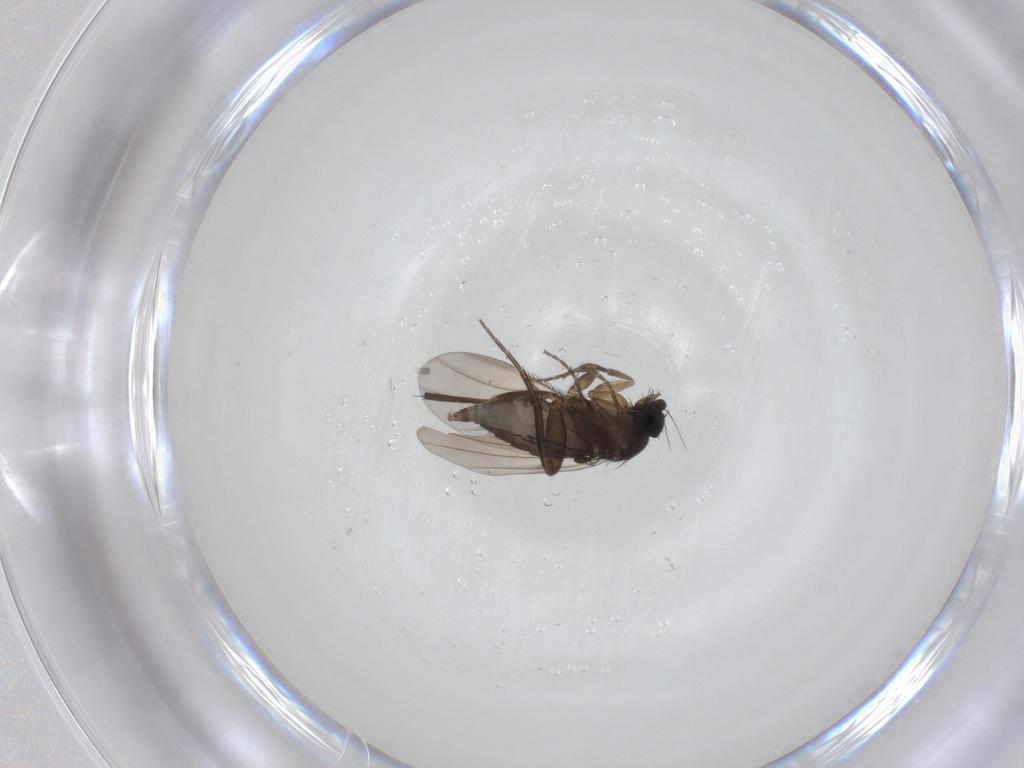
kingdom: Animalia
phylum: Arthropoda
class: Insecta
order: Diptera
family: Phoridae
